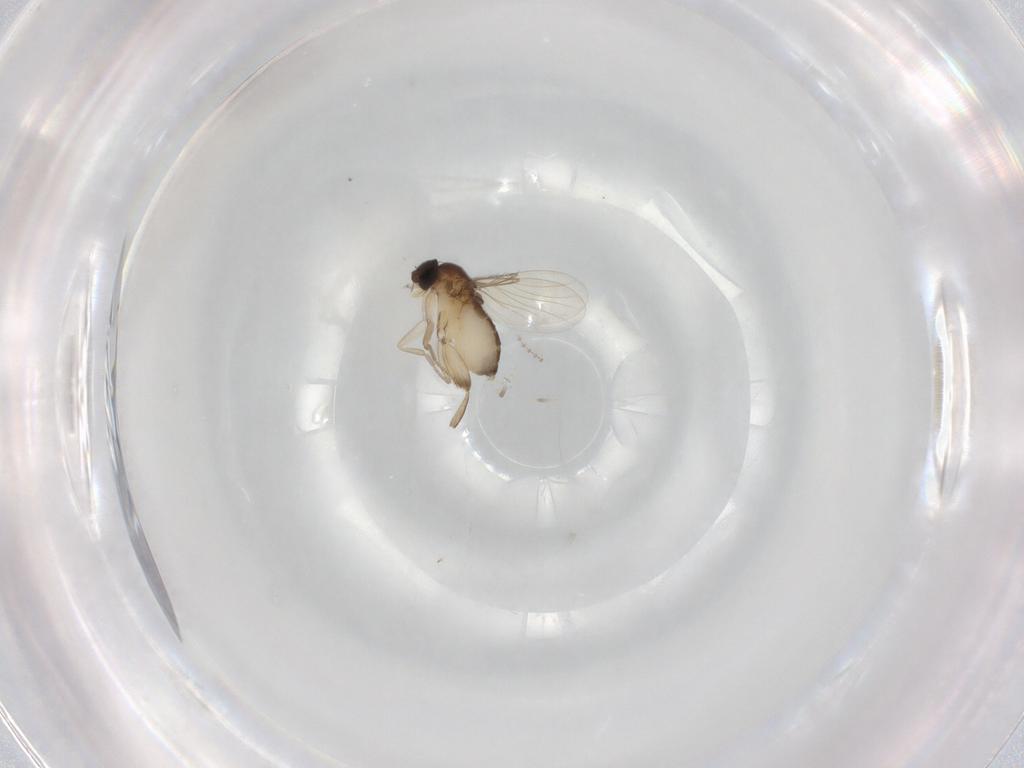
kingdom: Animalia
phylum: Arthropoda
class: Insecta
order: Diptera
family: Phoridae
